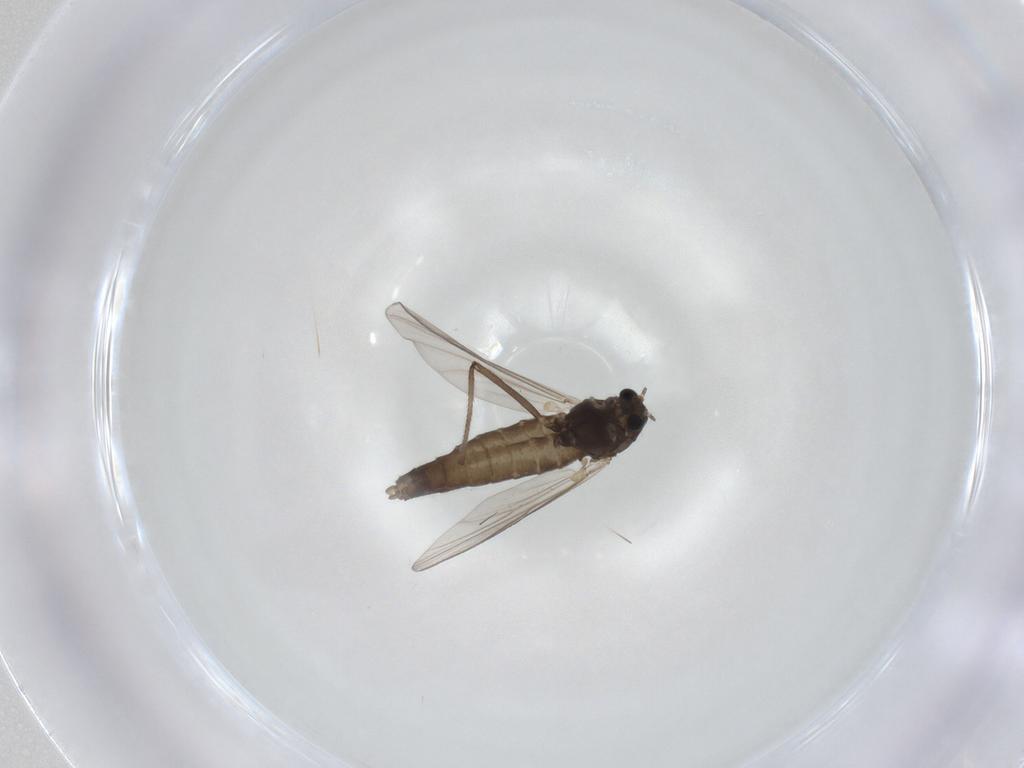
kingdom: Animalia
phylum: Arthropoda
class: Insecta
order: Diptera
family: Chironomidae
